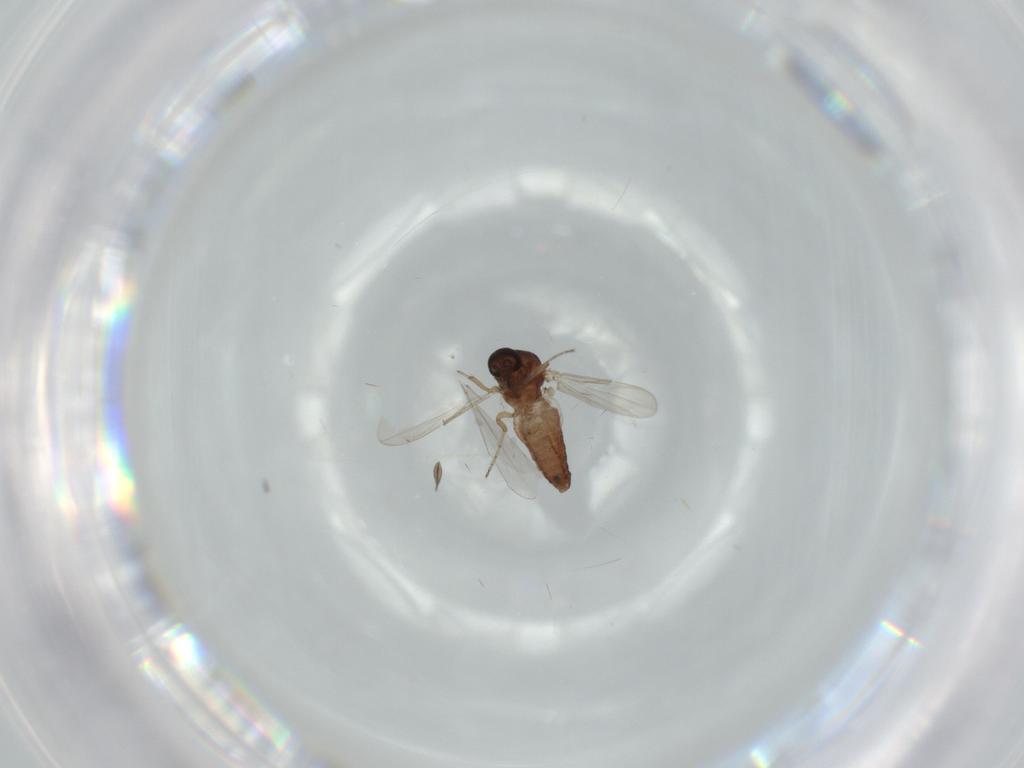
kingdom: Animalia
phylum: Arthropoda
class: Insecta
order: Diptera
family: Ceratopogonidae
